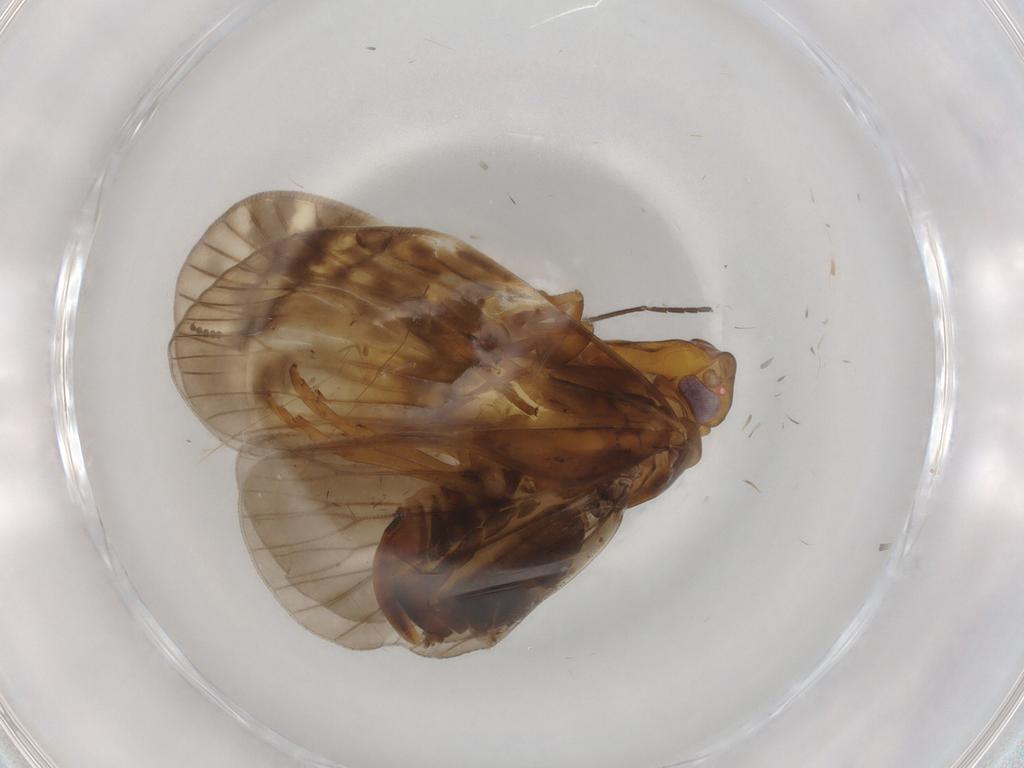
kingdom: Animalia
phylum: Arthropoda
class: Insecta
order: Hemiptera
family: Cixiidae
